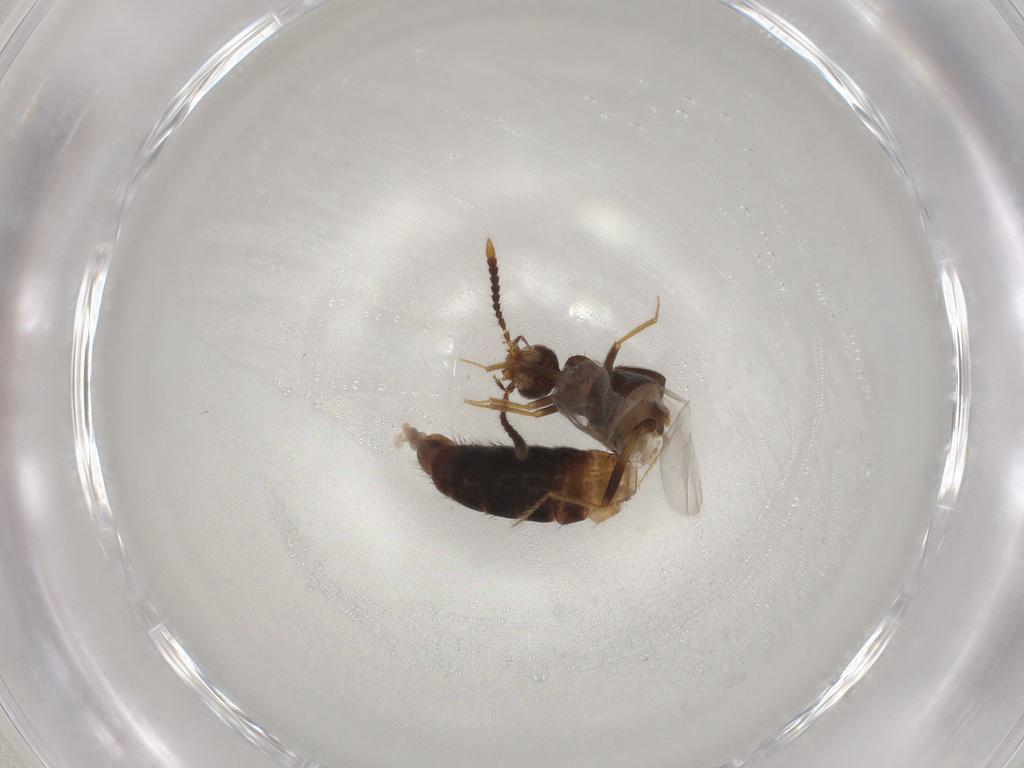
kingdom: Animalia
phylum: Arthropoda
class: Insecta
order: Coleoptera
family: Staphylinidae
